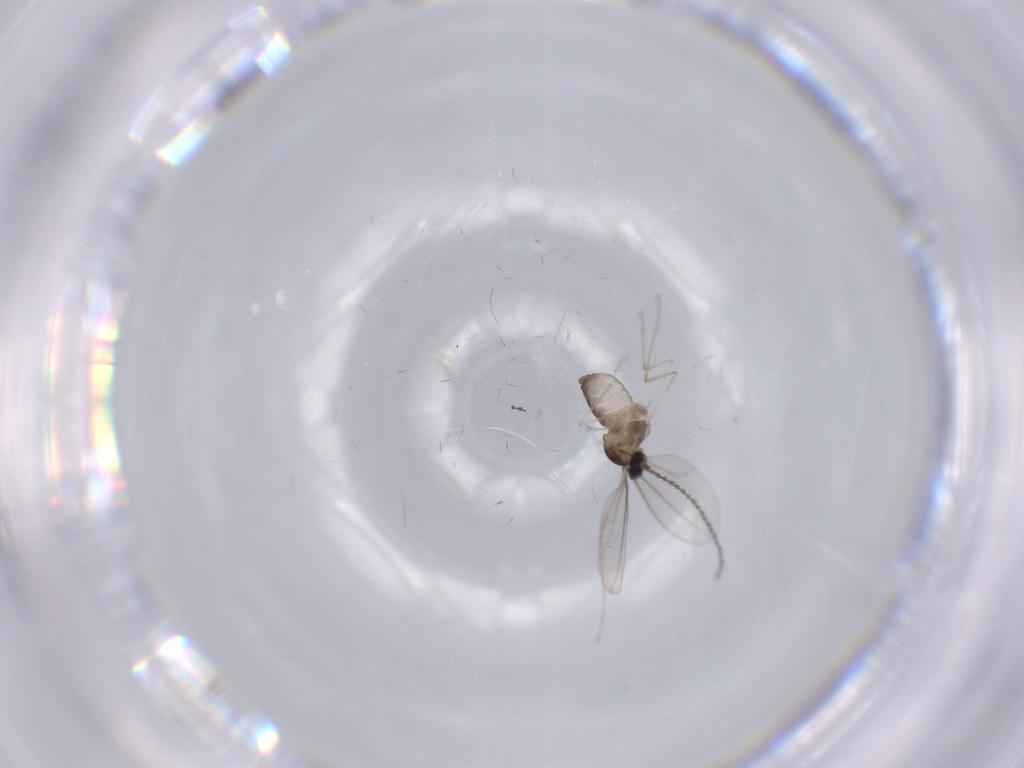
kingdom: Animalia
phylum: Arthropoda
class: Insecta
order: Diptera
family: Cecidomyiidae
